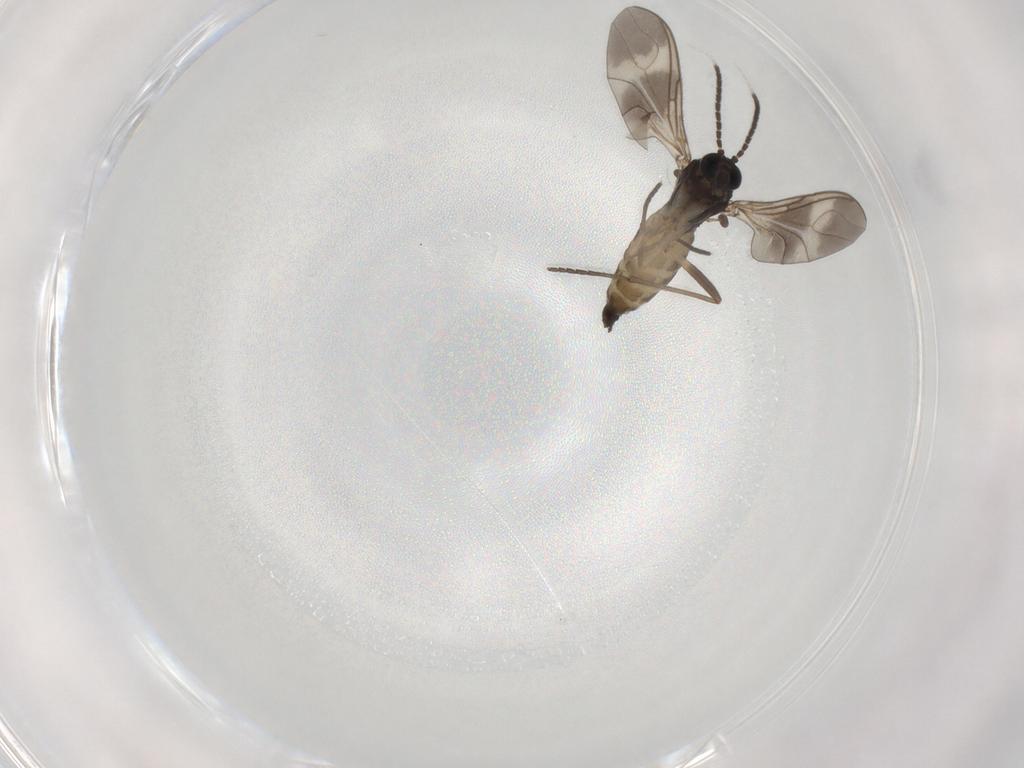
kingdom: Animalia
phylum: Arthropoda
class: Insecta
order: Diptera
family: Sciaridae
